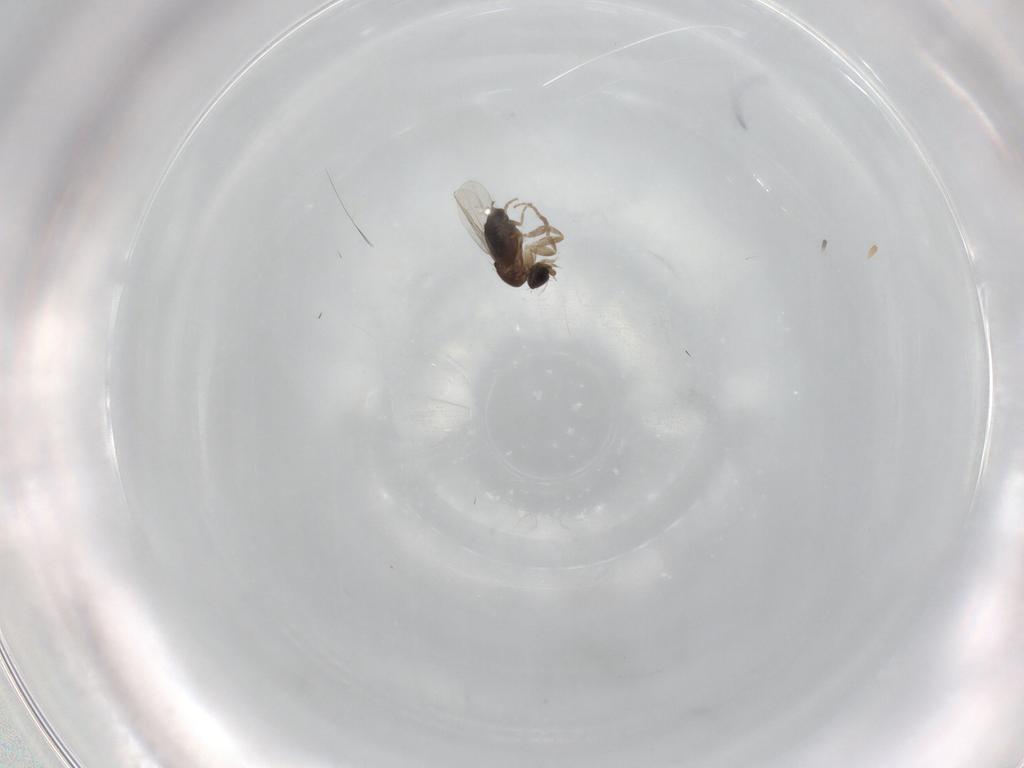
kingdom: Animalia
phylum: Arthropoda
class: Insecta
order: Diptera
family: Phoridae
